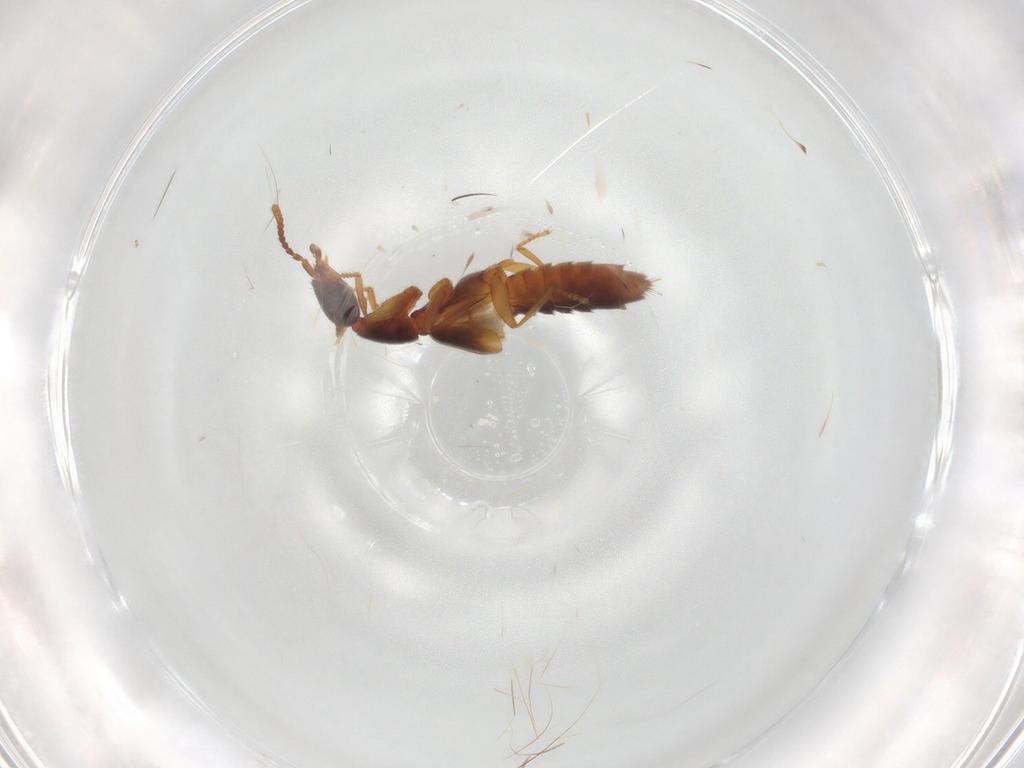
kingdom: Animalia
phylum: Arthropoda
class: Insecta
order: Coleoptera
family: Staphylinidae
